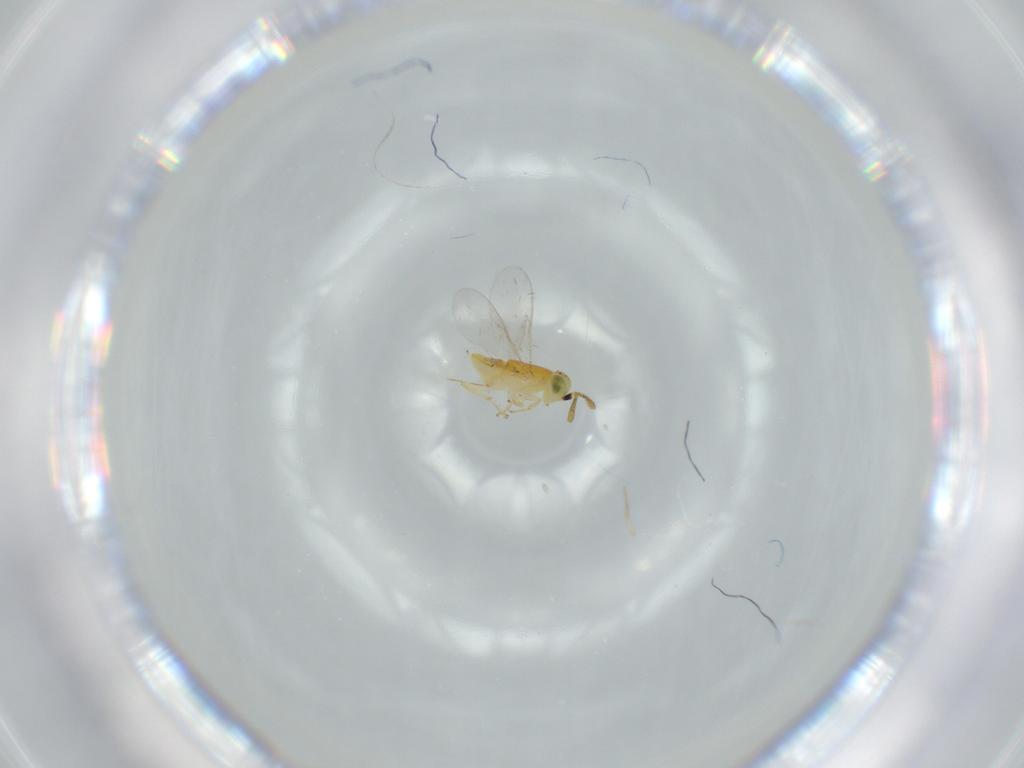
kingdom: Animalia
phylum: Arthropoda
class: Insecta
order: Hymenoptera
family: Encyrtidae
